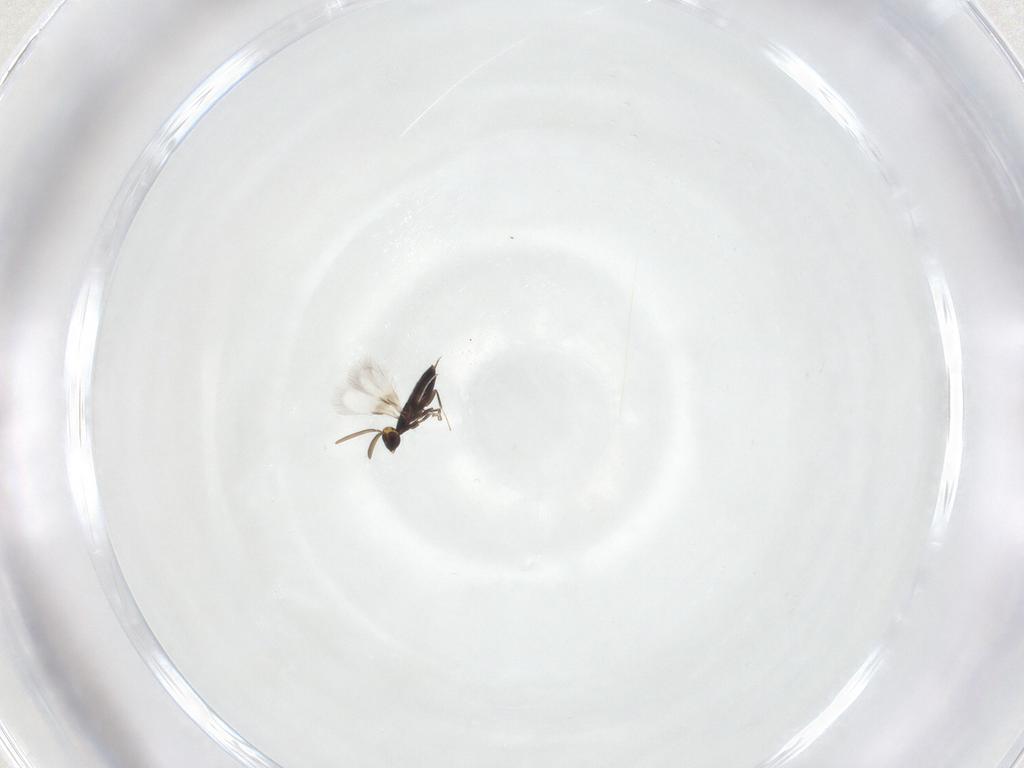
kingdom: Animalia
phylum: Arthropoda
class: Insecta
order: Hymenoptera
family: Signiphoridae
